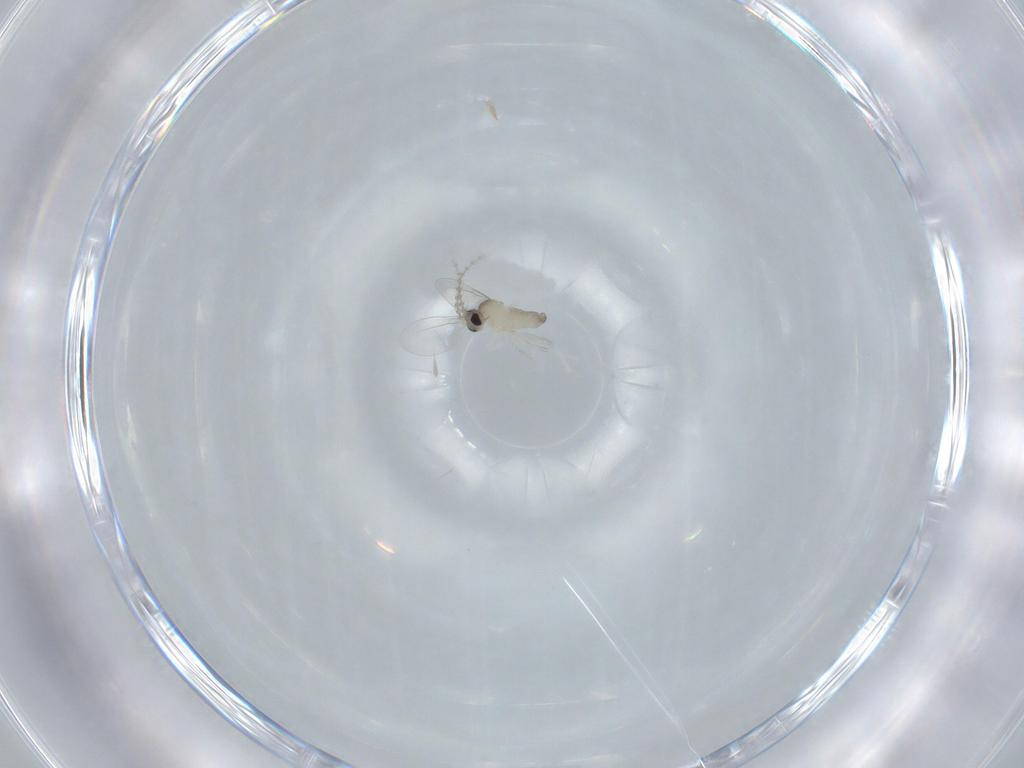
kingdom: Animalia
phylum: Arthropoda
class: Insecta
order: Diptera
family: Cecidomyiidae
